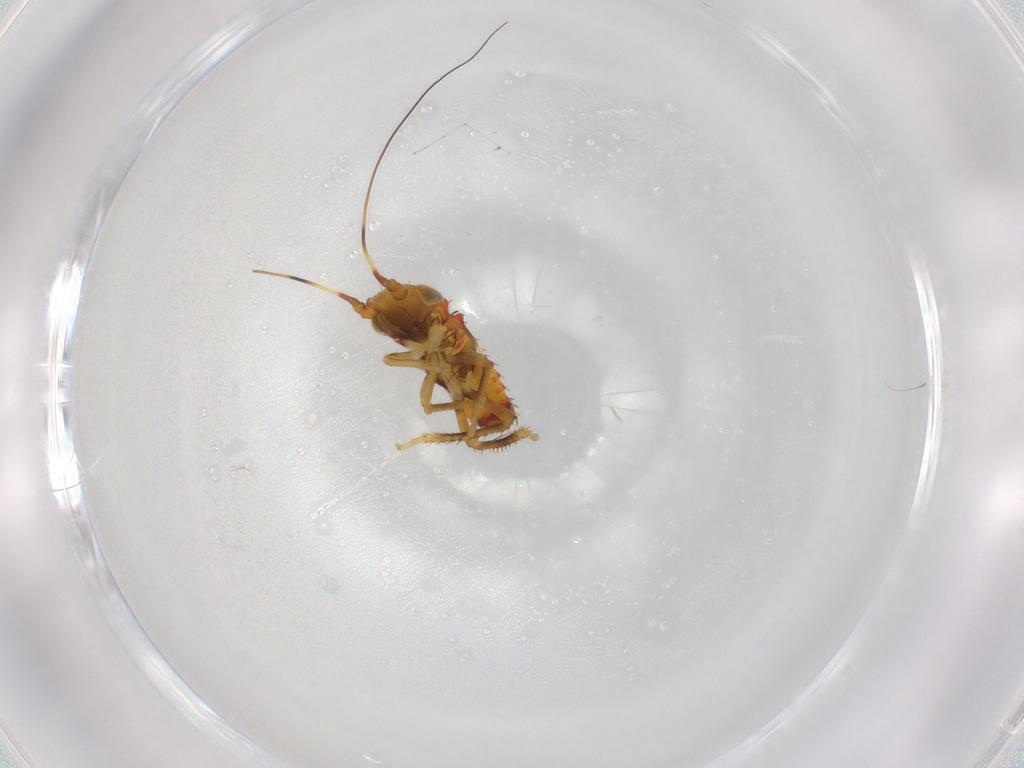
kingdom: Animalia
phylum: Arthropoda
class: Insecta
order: Hemiptera
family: Cicadellidae
